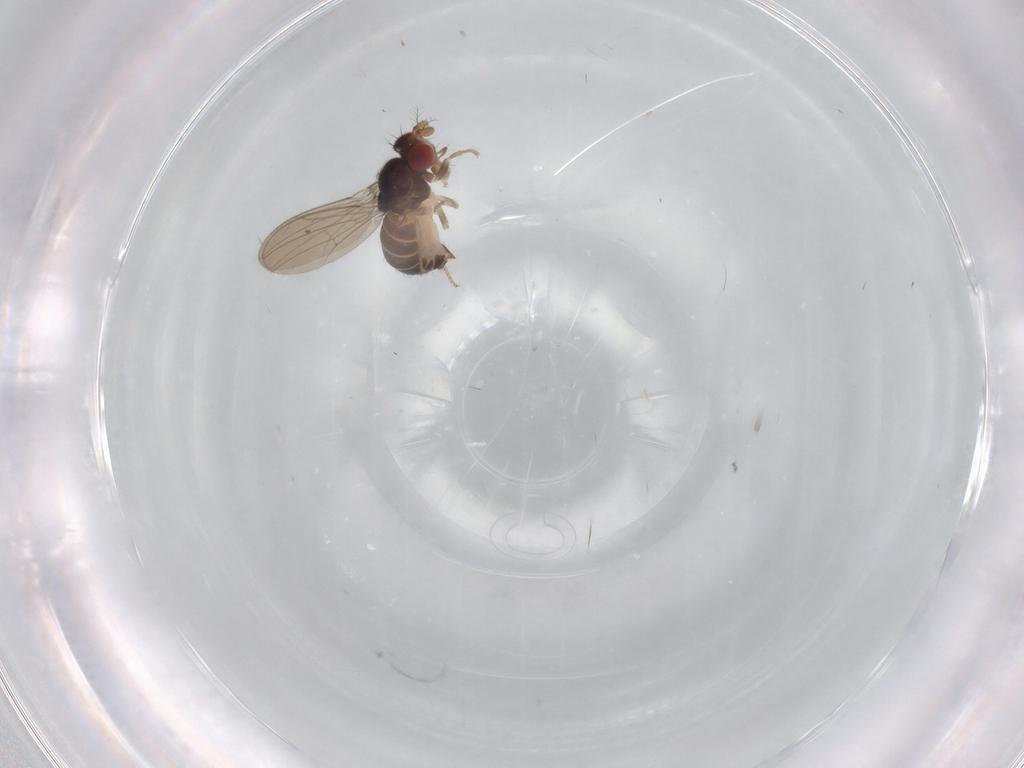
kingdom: Animalia
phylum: Arthropoda
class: Insecta
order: Diptera
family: Drosophilidae
